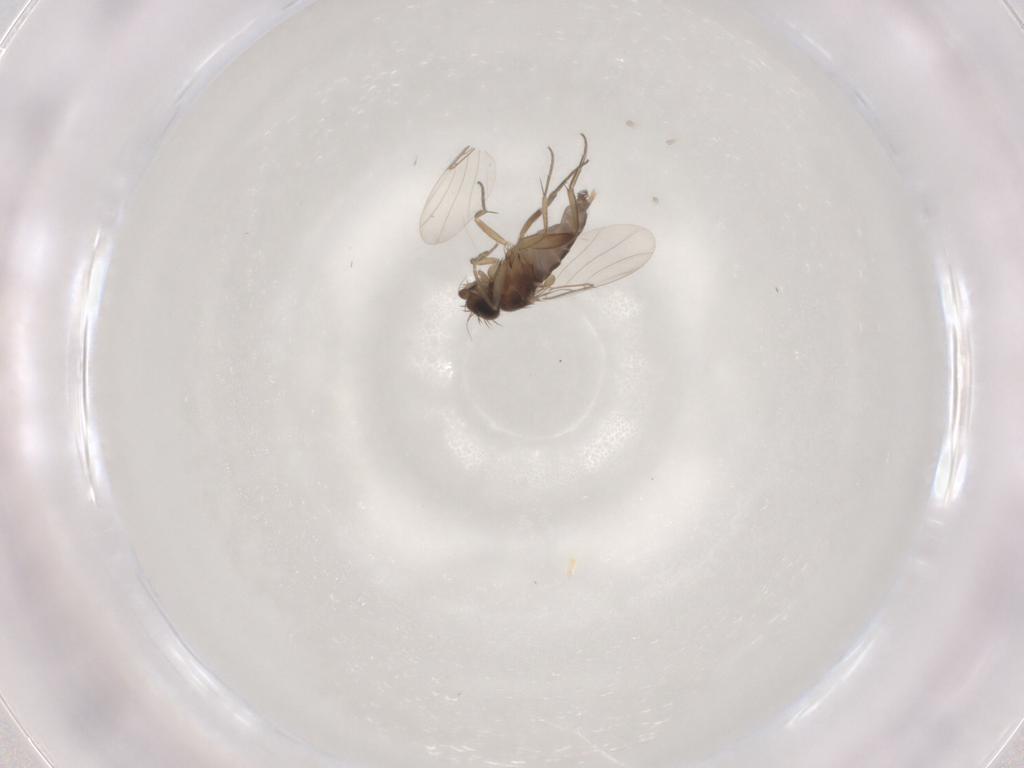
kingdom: Animalia
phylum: Arthropoda
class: Insecta
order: Diptera
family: Phoridae
